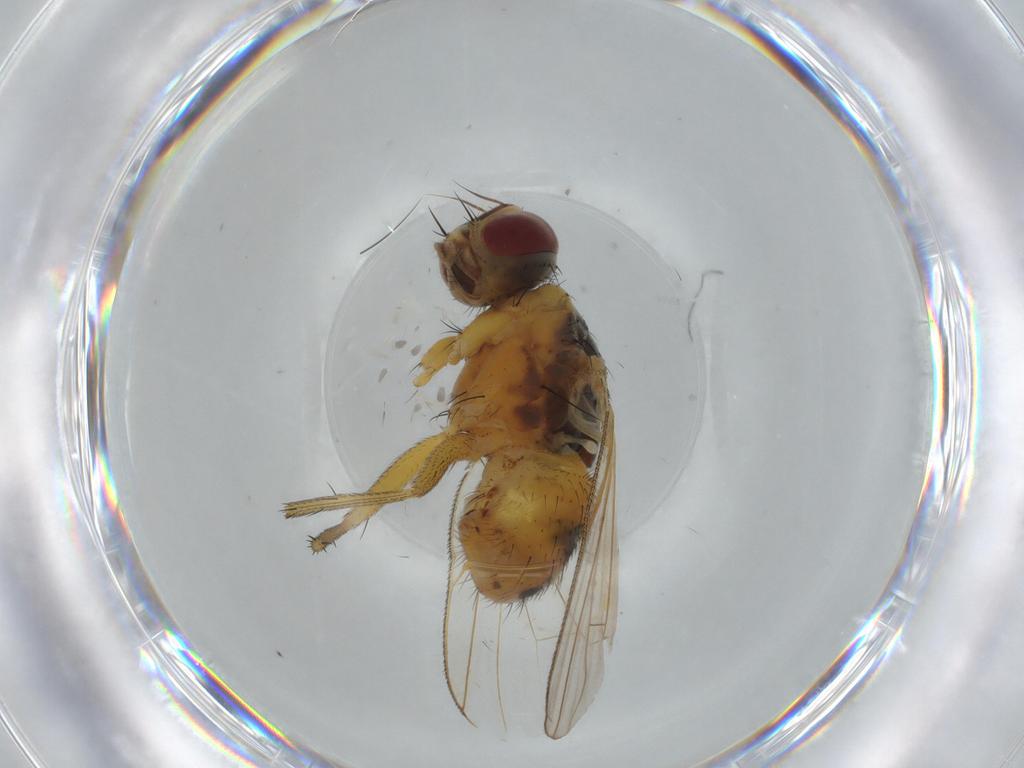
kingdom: Animalia
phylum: Arthropoda
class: Insecta
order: Diptera
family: Muscidae
